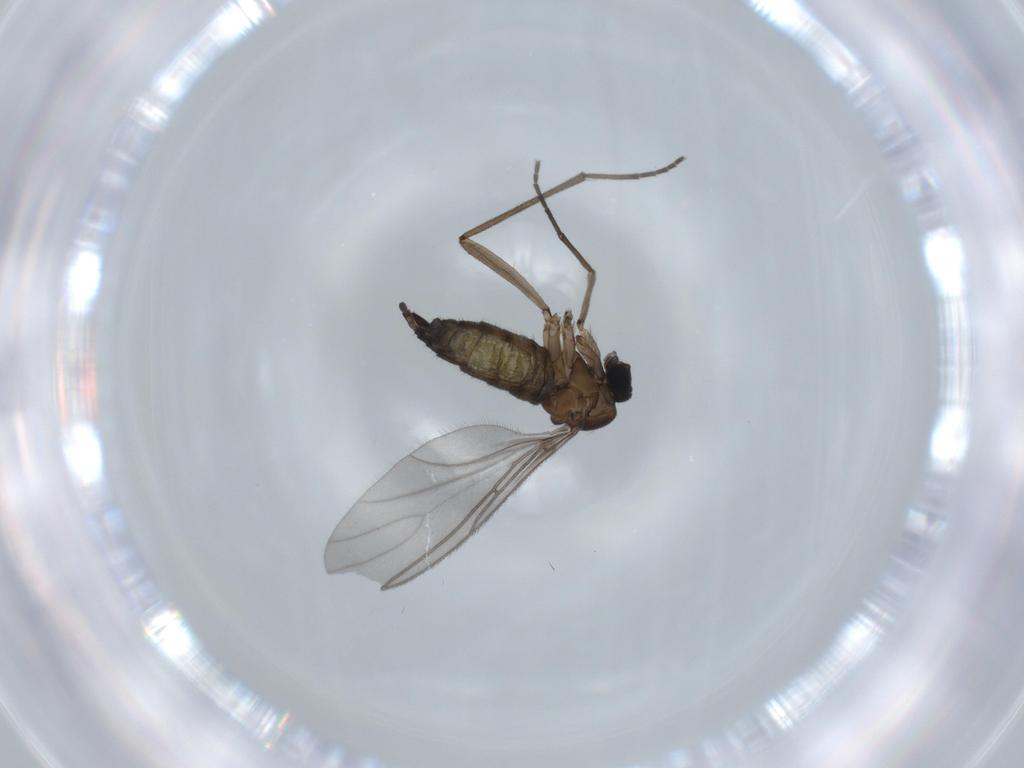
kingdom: Animalia
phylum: Arthropoda
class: Insecta
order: Diptera
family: Sciaridae
